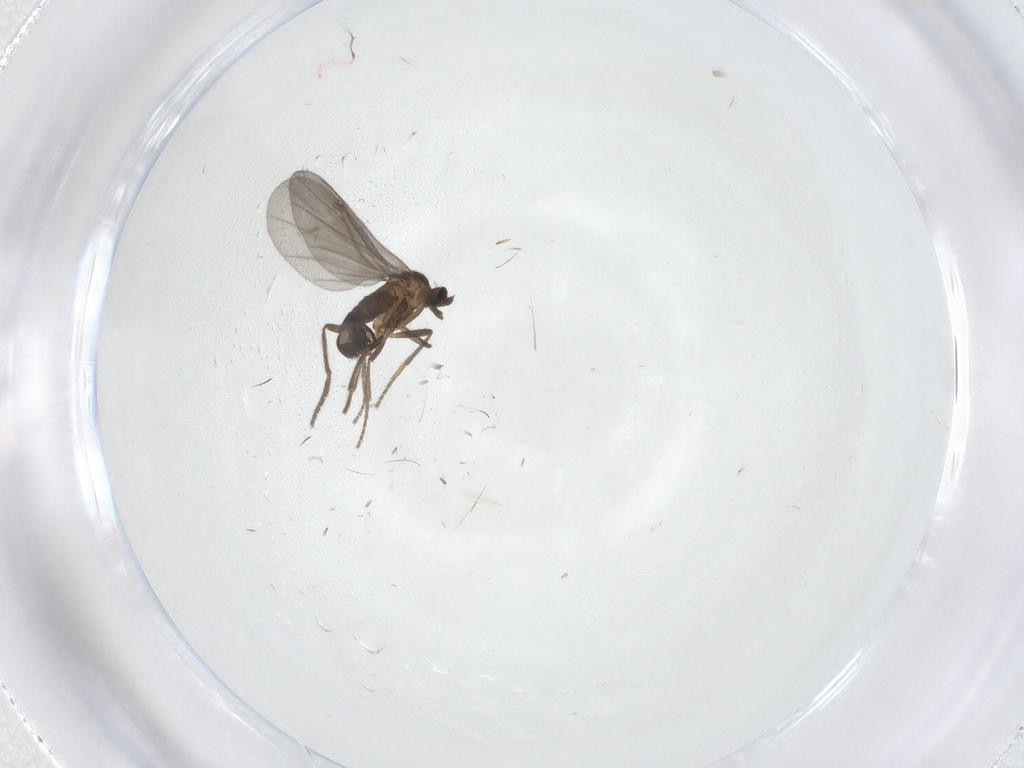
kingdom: Animalia
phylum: Arthropoda
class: Insecta
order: Diptera
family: Phoridae
